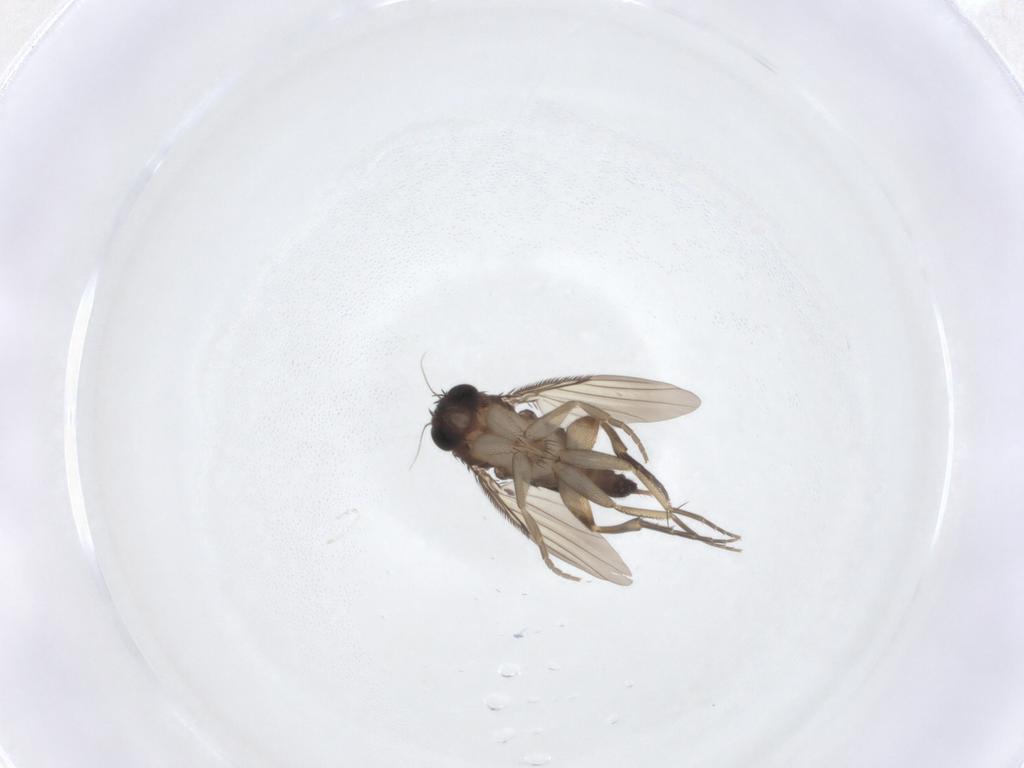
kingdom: Animalia
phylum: Arthropoda
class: Insecta
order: Diptera
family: Phoridae
